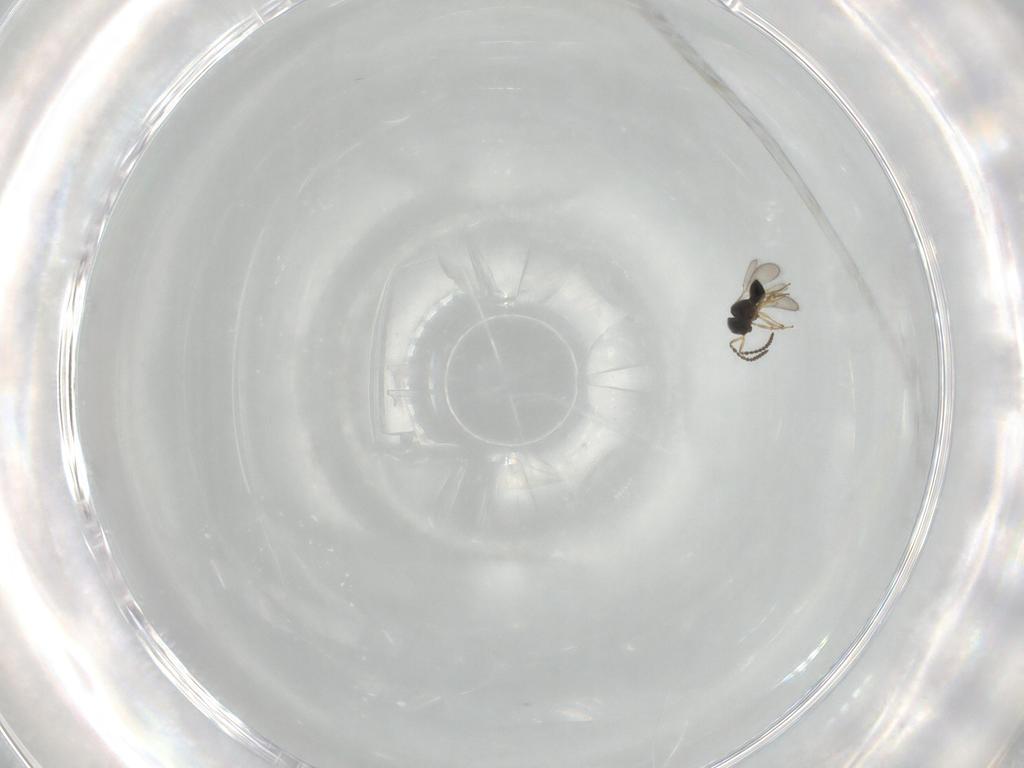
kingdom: Animalia
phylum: Arthropoda
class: Insecta
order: Hymenoptera
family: Scelionidae
